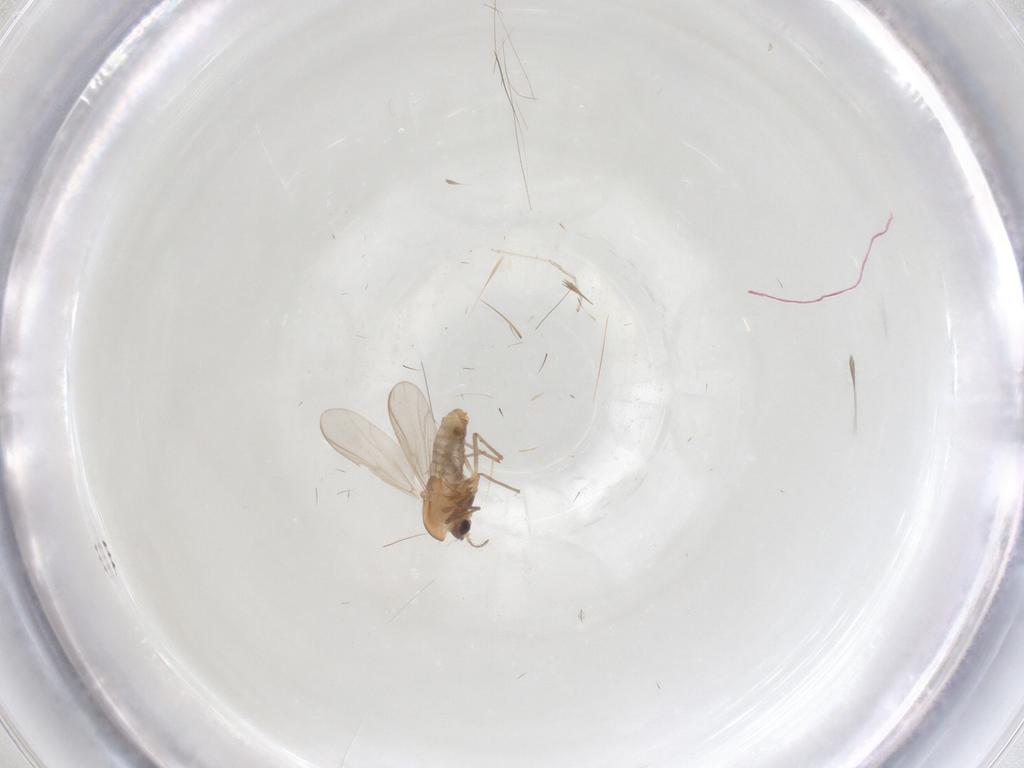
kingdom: Animalia
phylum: Arthropoda
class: Insecta
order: Diptera
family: Cecidomyiidae
